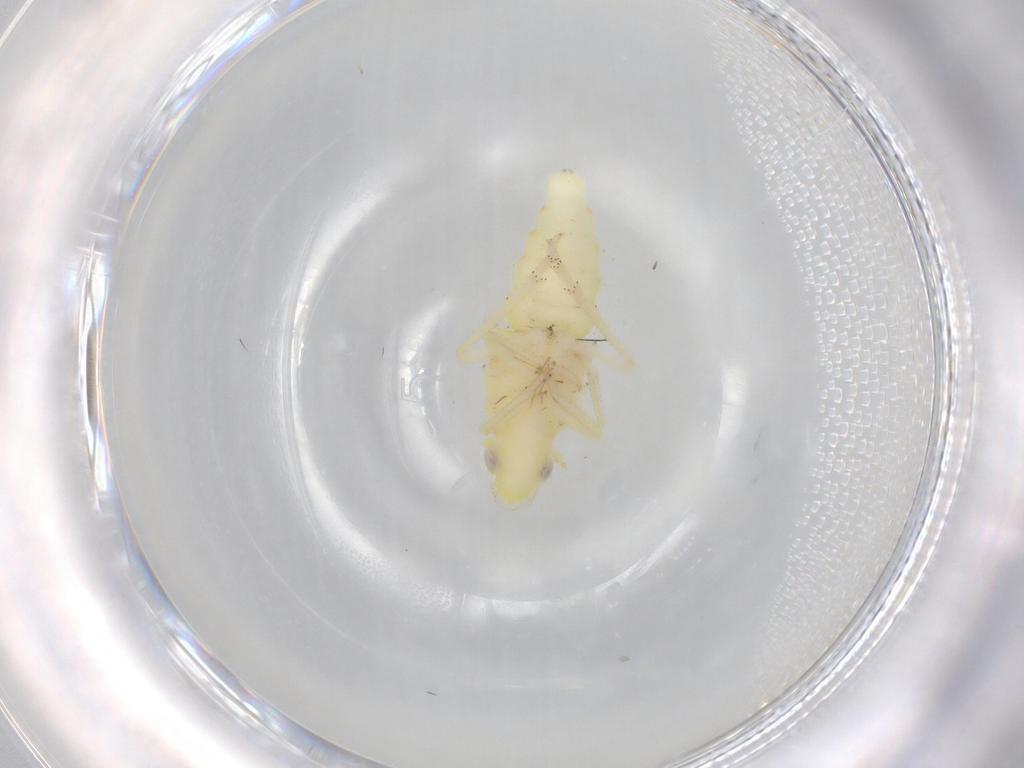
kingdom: Animalia
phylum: Arthropoda
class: Insecta
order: Hemiptera
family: Tropiduchidae
